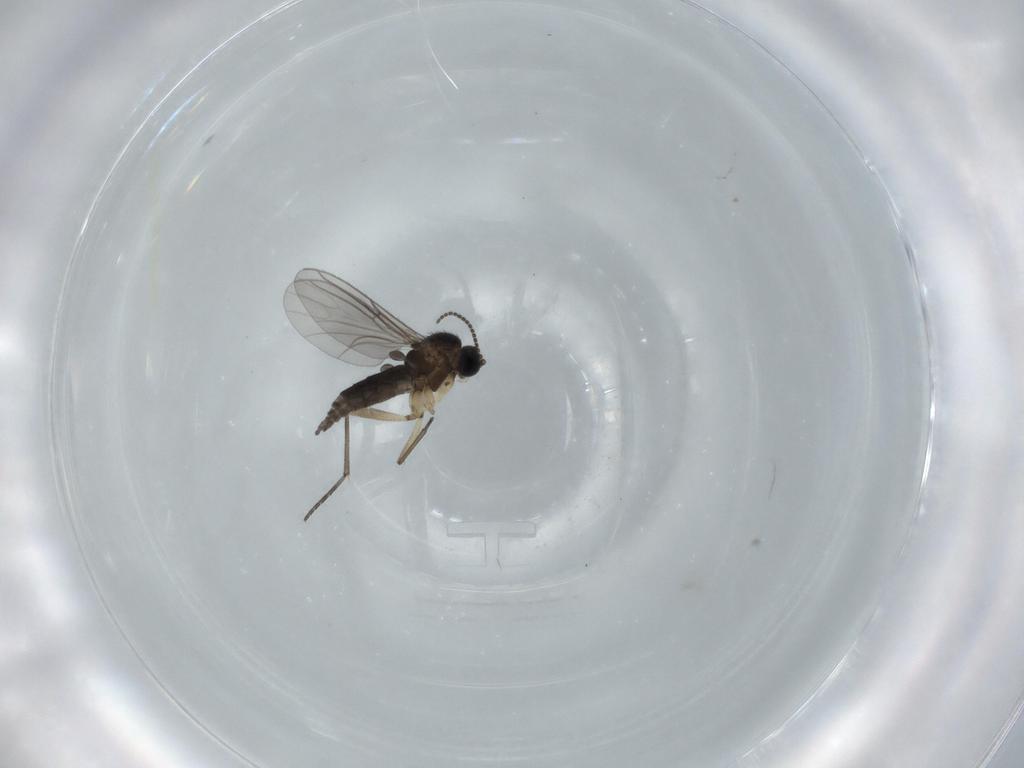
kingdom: Animalia
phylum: Arthropoda
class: Insecta
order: Diptera
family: Sciaridae
